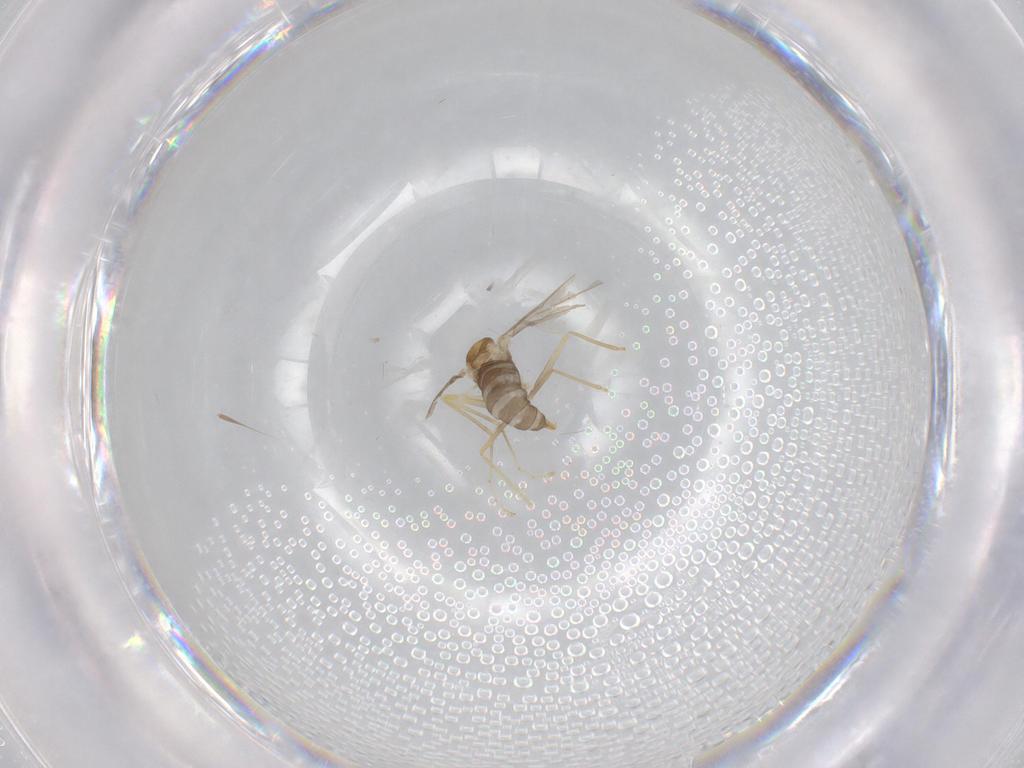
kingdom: Animalia
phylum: Arthropoda
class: Insecta
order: Diptera
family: Cecidomyiidae
